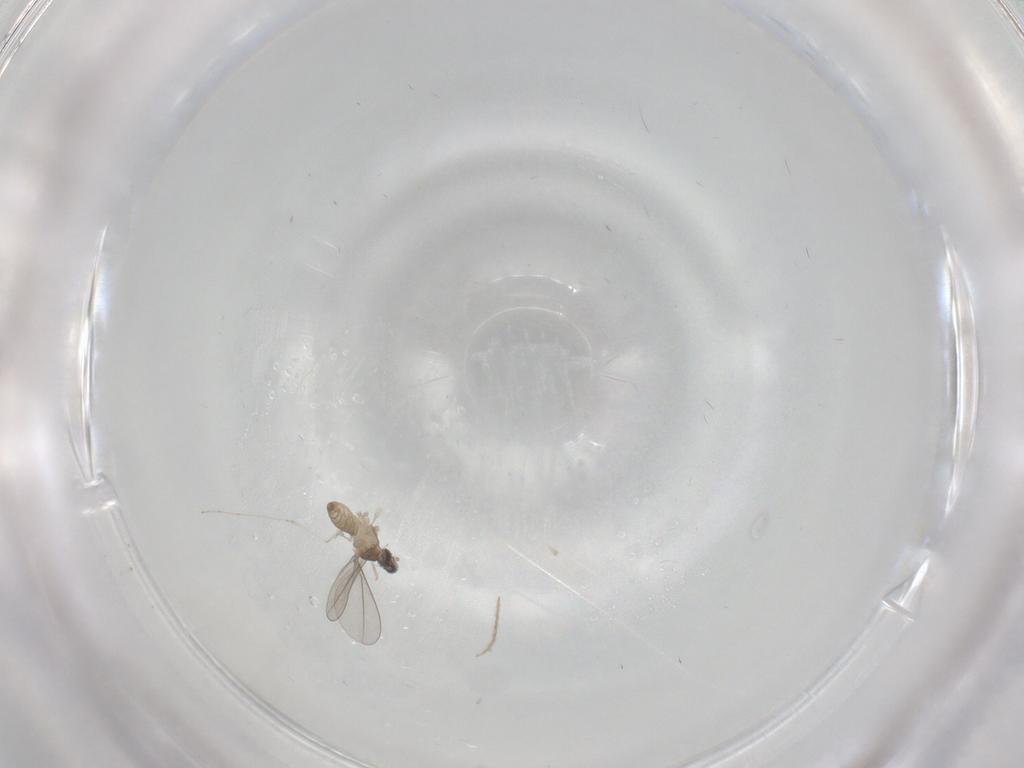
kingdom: Animalia
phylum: Arthropoda
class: Insecta
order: Diptera
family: Cecidomyiidae
